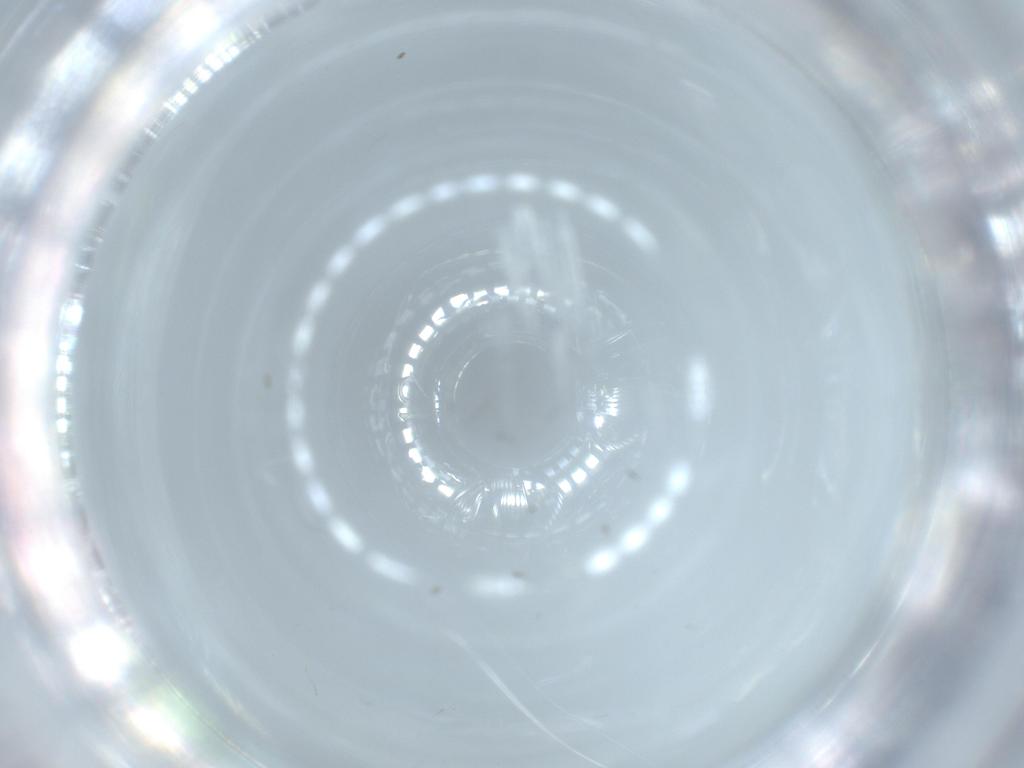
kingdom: Animalia
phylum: Arthropoda
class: Insecta
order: Diptera
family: Cecidomyiidae
